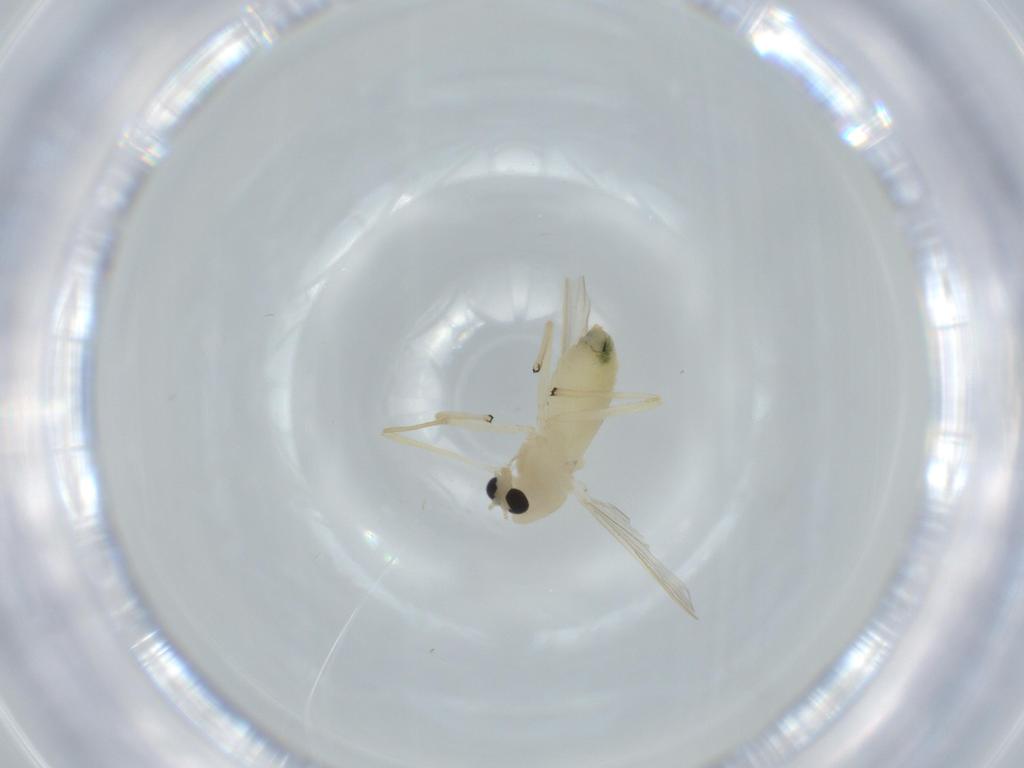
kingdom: Animalia
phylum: Arthropoda
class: Insecta
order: Diptera
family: Chironomidae
